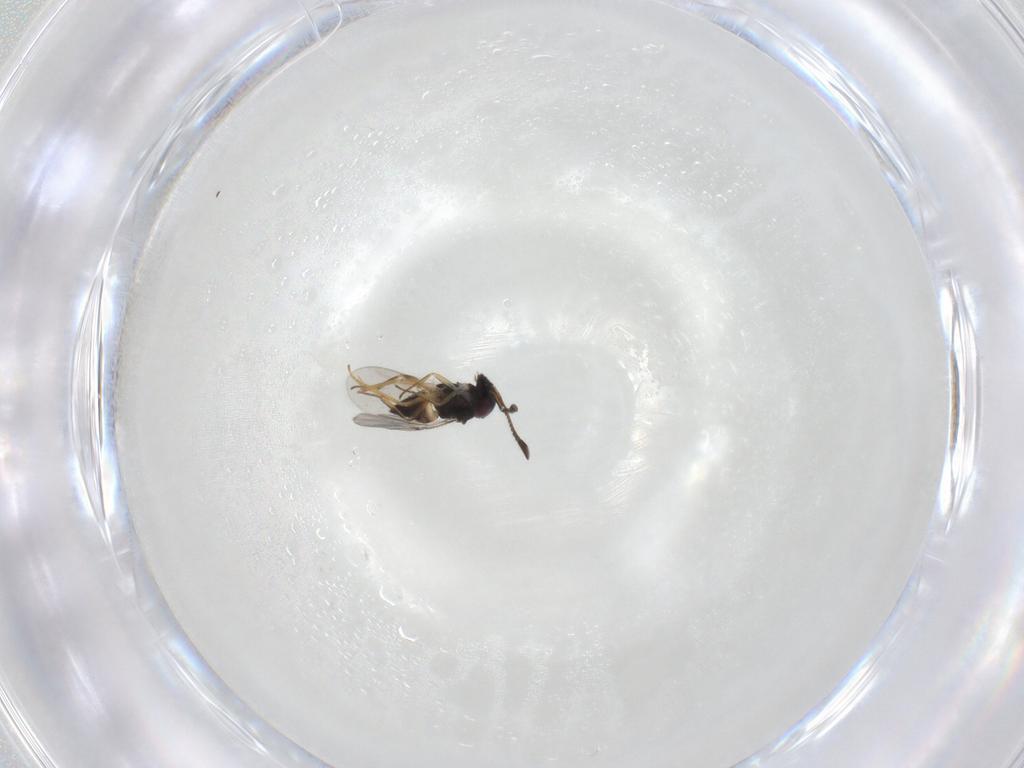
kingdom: Animalia
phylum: Arthropoda
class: Insecta
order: Hymenoptera
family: Dryinidae
